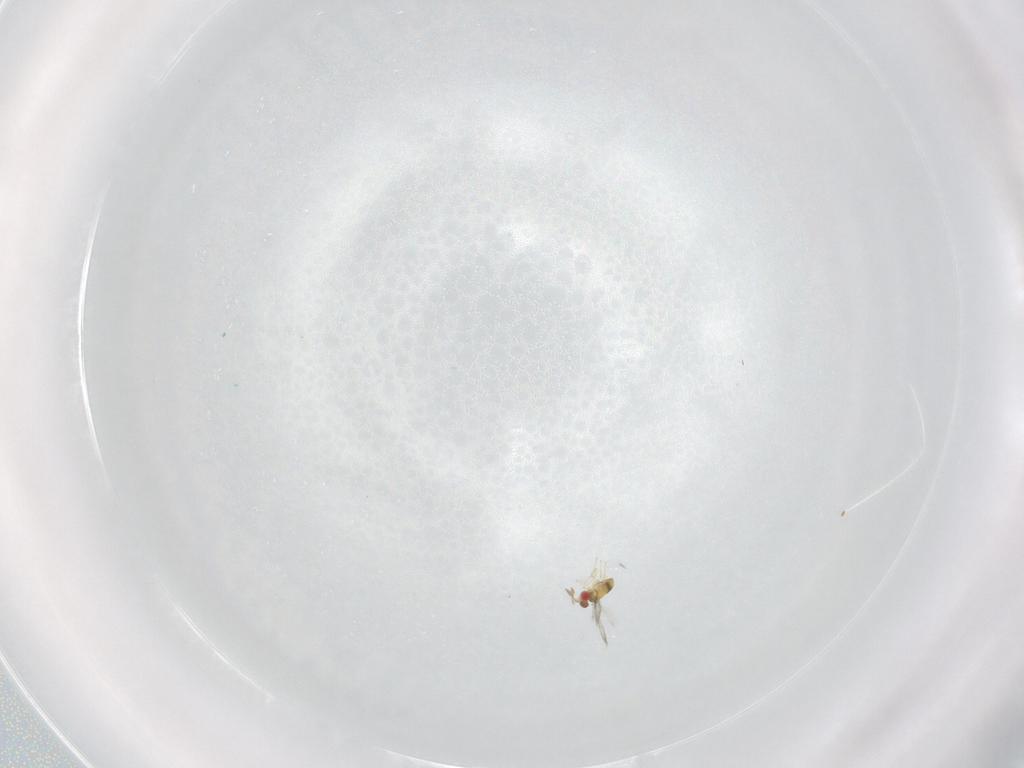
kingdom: Animalia
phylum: Arthropoda
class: Insecta
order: Hymenoptera
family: Trichogrammatidae
